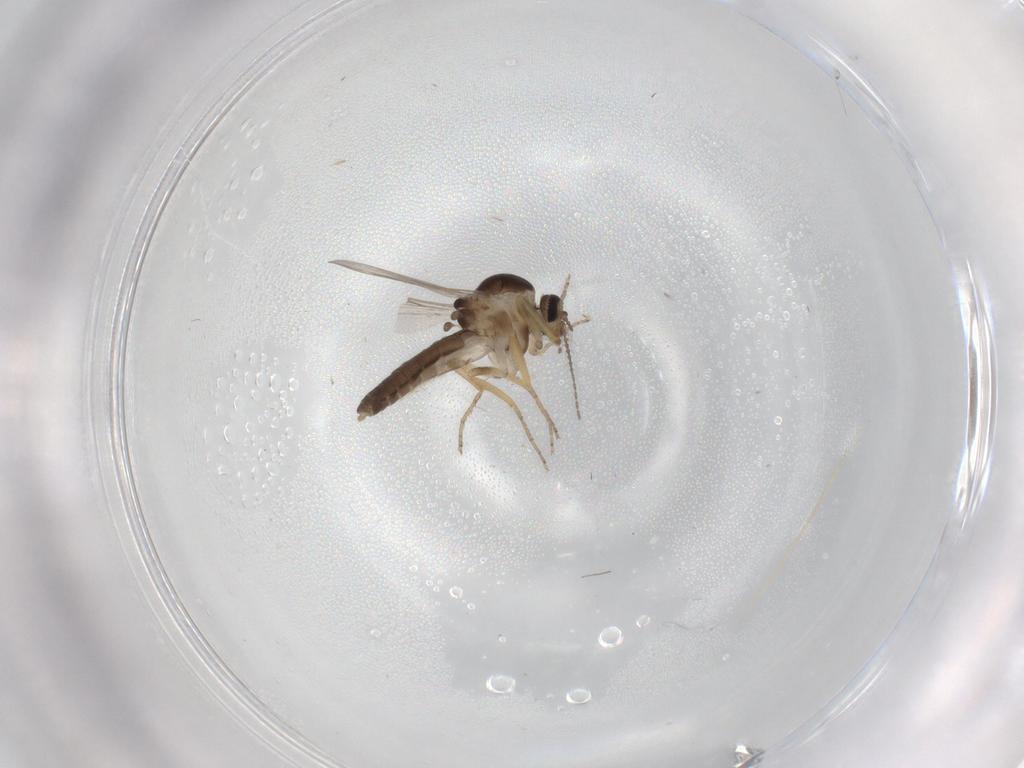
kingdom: Animalia
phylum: Arthropoda
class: Insecta
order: Diptera
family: Ceratopogonidae
